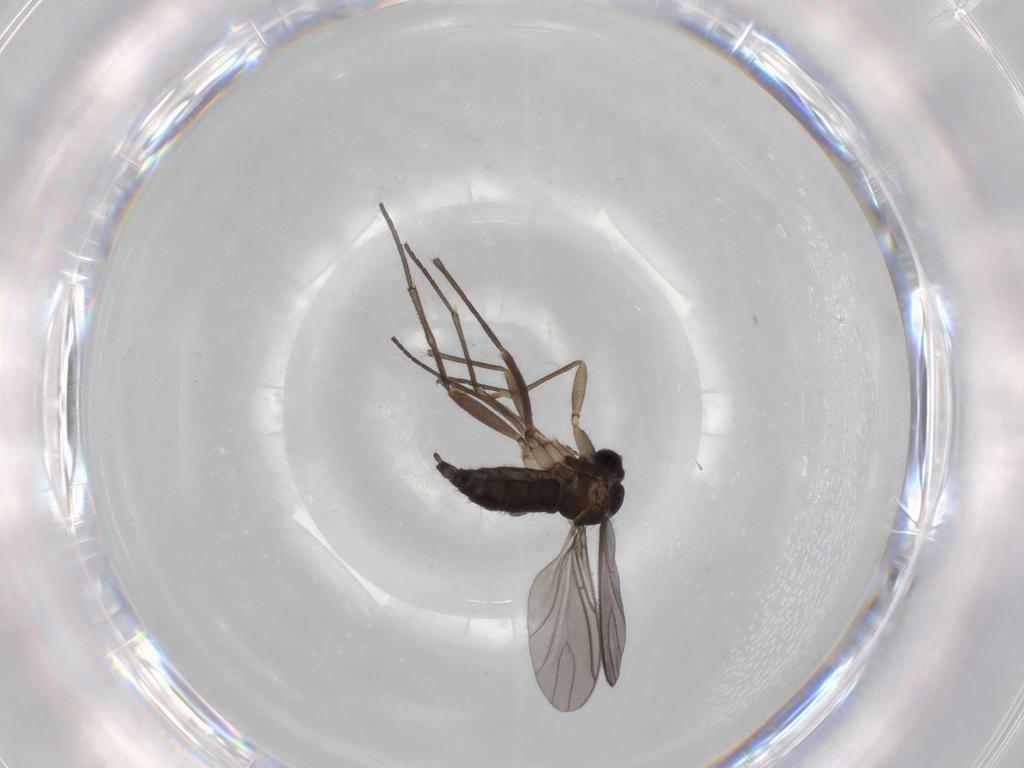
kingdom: Animalia
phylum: Arthropoda
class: Insecta
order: Diptera
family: Sciaridae
